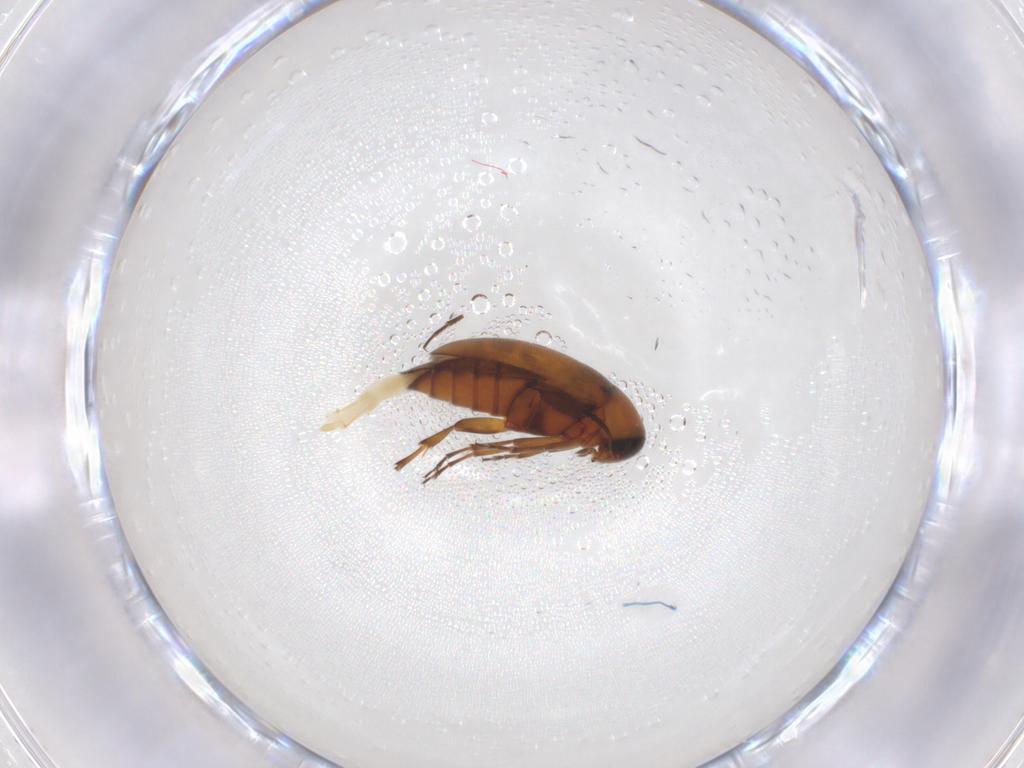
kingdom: Animalia
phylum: Arthropoda
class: Insecta
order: Coleoptera
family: Scraptiidae
